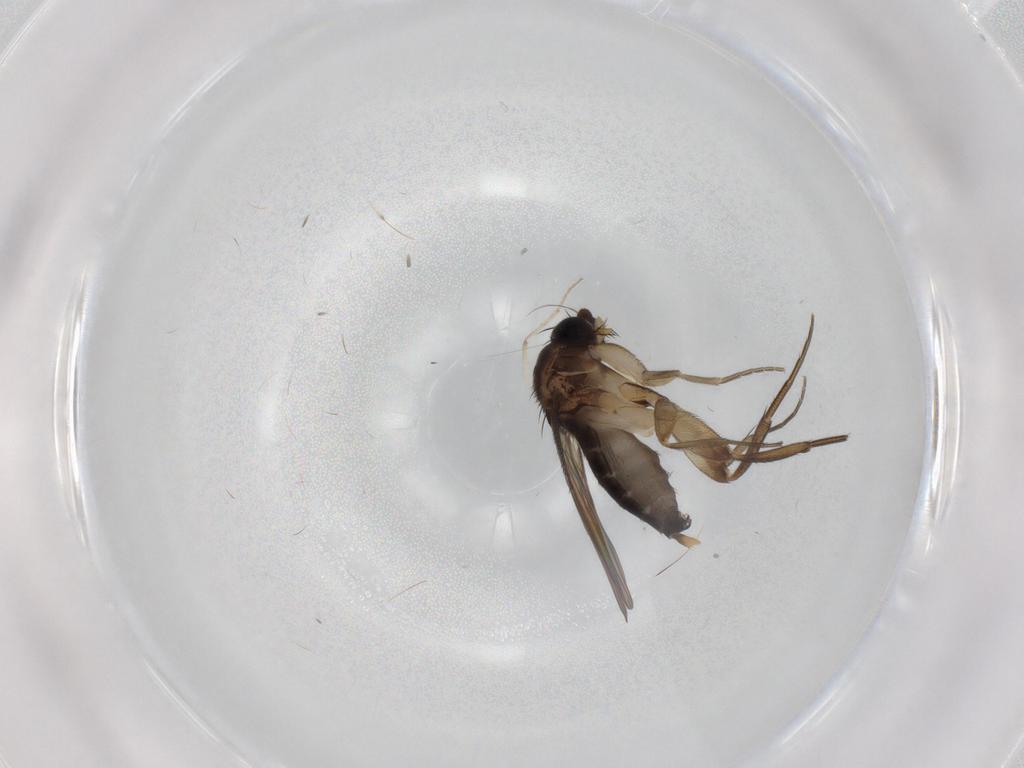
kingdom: Animalia
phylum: Arthropoda
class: Insecta
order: Diptera
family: Phoridae
